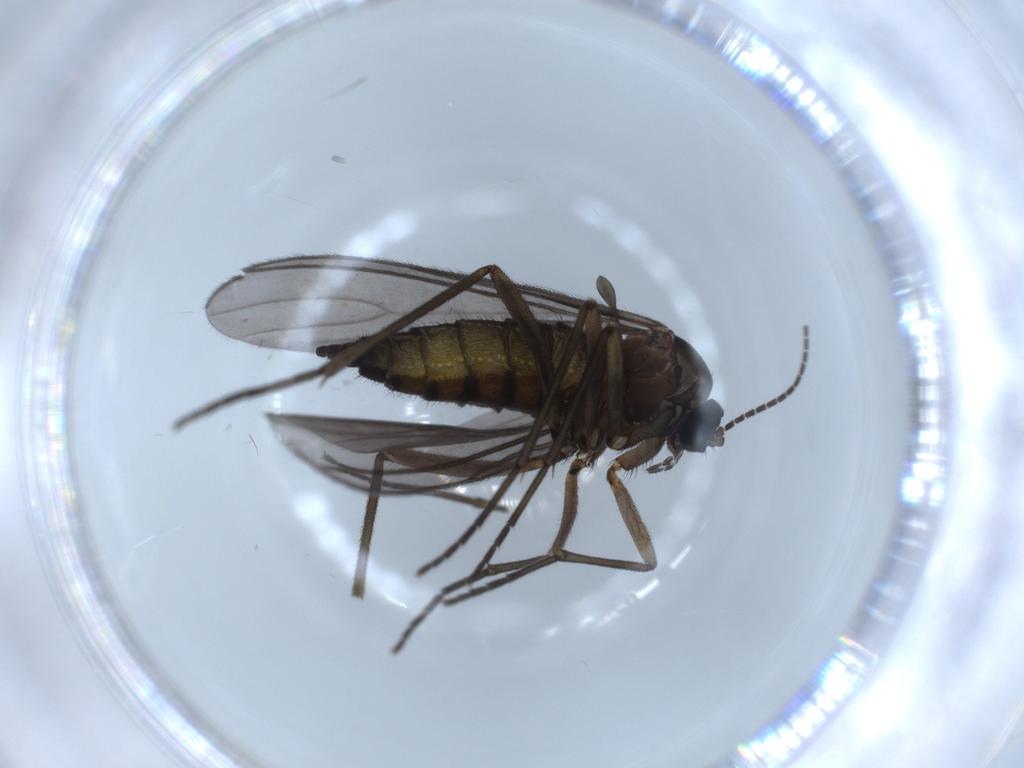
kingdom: Animalia
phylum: Arthropoda
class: Insecta
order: Diptera
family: Sciaridae
